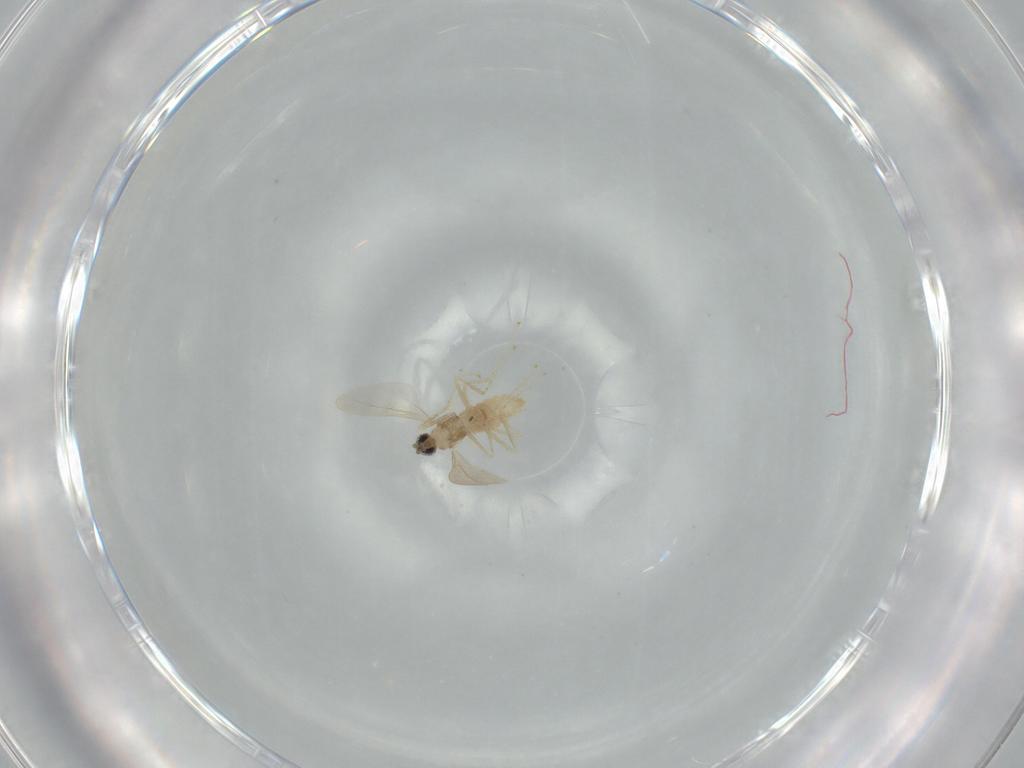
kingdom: Animalia
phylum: Arthropoda
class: Insecta
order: Diptera
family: Cecidomyiidae
